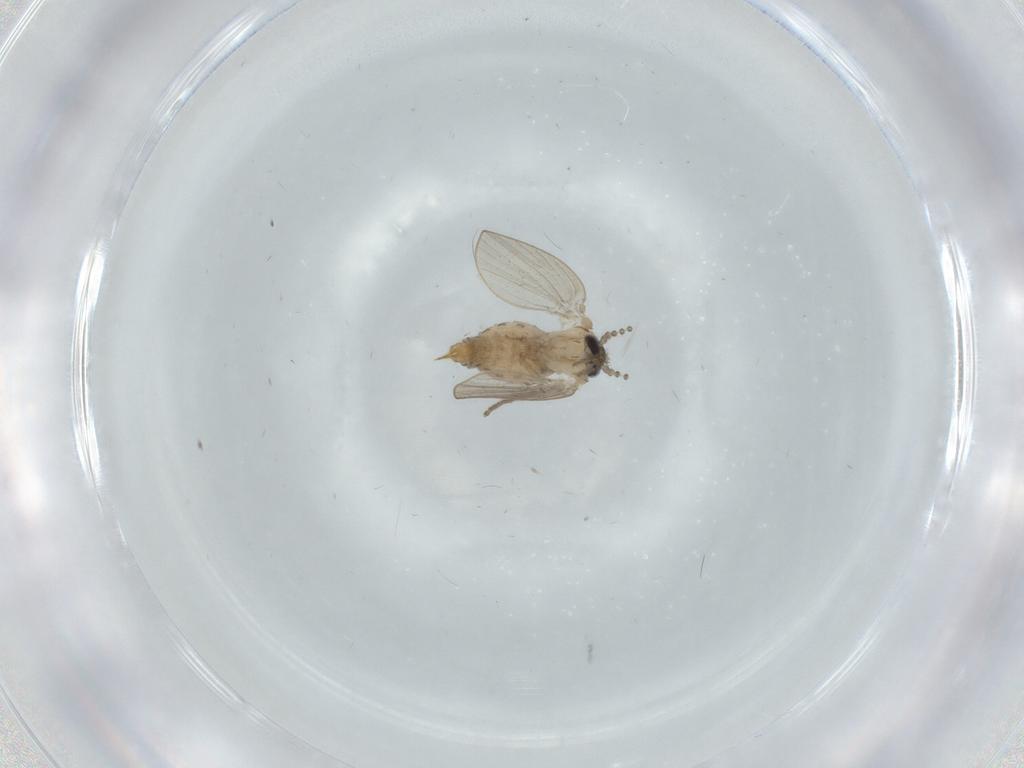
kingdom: Animalia
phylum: Arthropoda
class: Insecta
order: Diptera
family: Psychodidae
